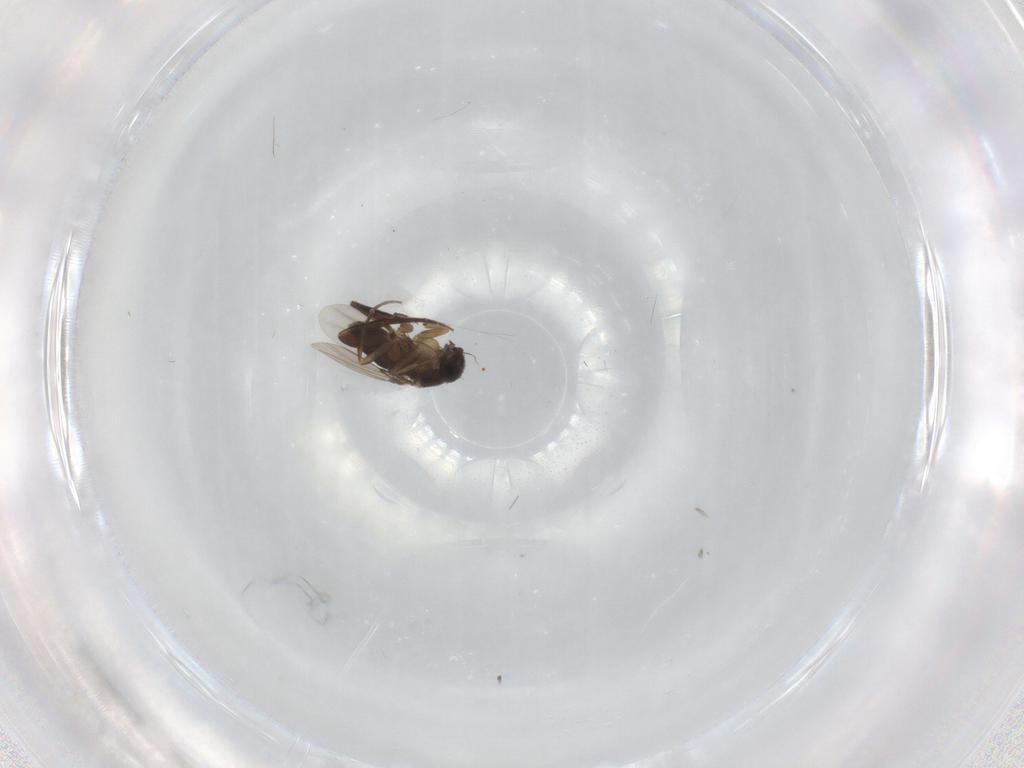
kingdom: Animalia
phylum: Arthropoda
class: Insecta
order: Diptera
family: Phoridae
